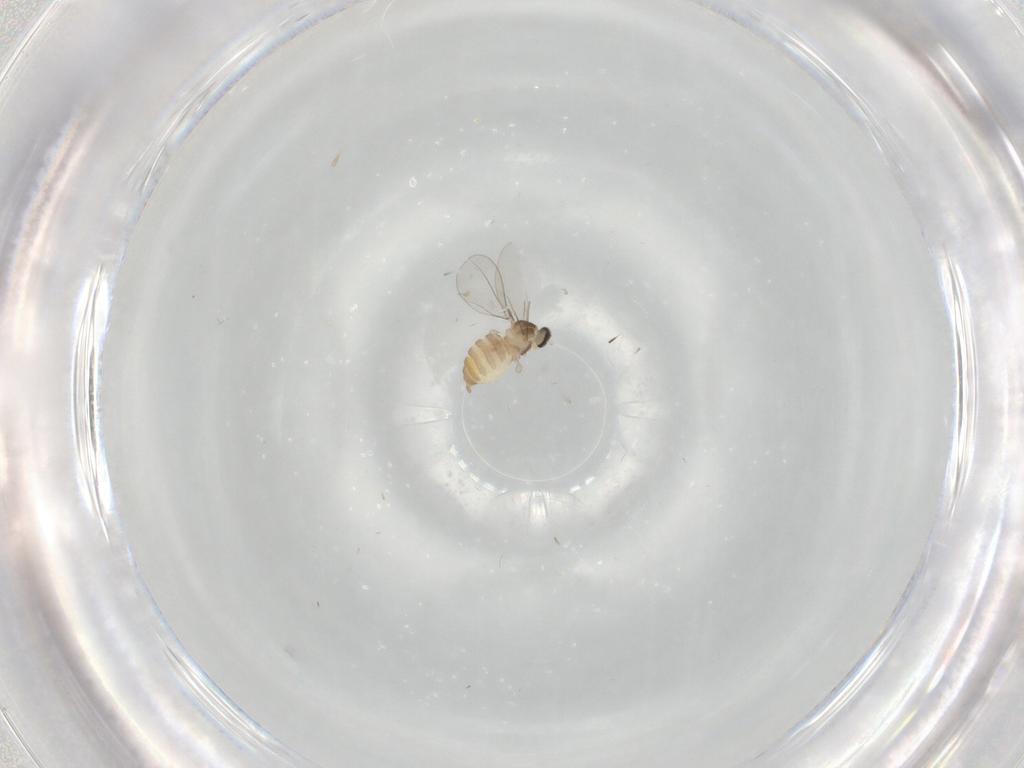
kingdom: Animalia
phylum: Arthropoda
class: Insecta
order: Diptera
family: Cecidomyiidae
